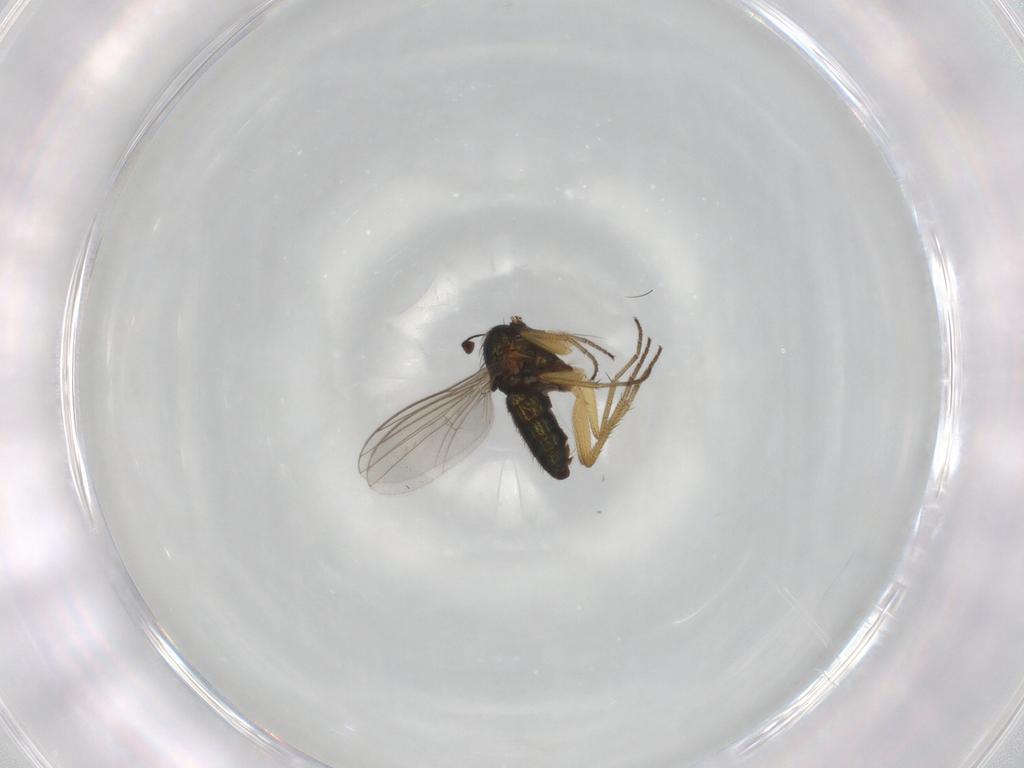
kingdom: Animalia
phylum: Arthropoda
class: Insecta
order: Diptera
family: Dolichopodidae
